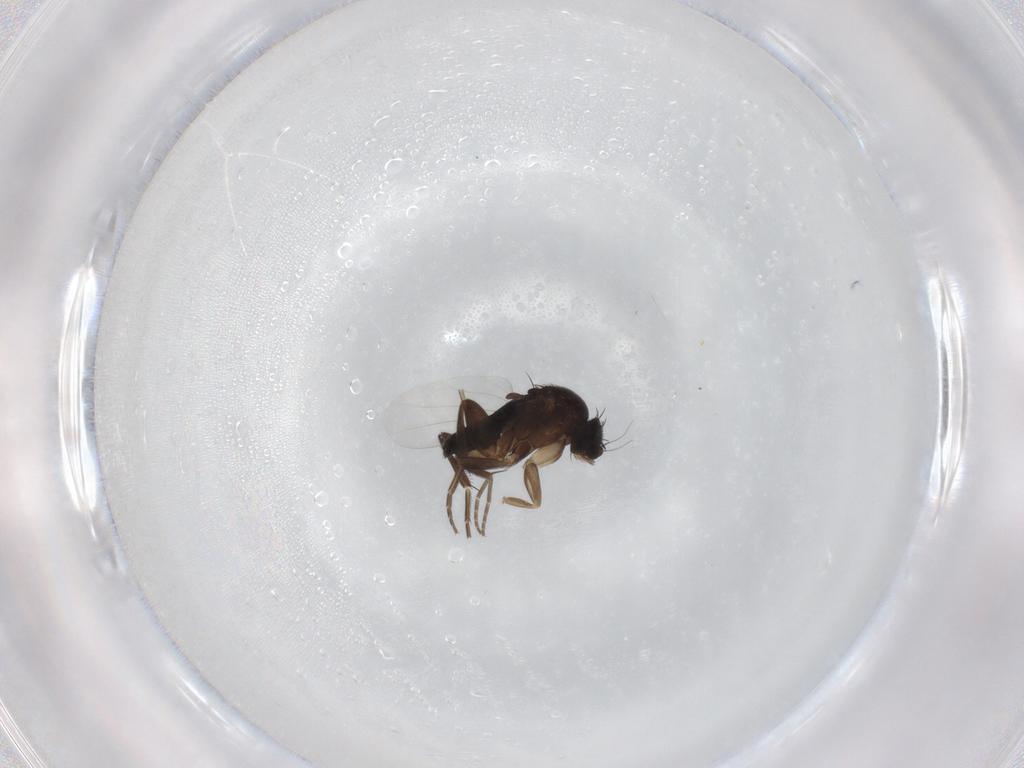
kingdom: Animalia
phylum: Arthropoda
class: Insecta
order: Diptera
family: Phoridae
